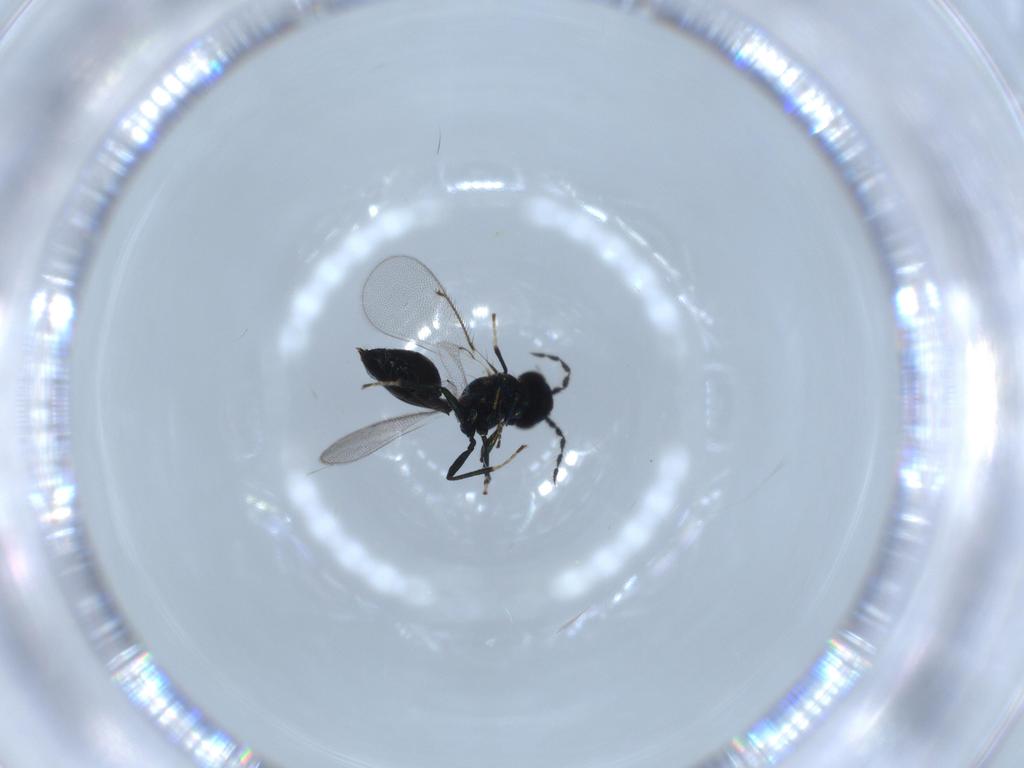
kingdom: Animalia
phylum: Arthropoda
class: Insecta
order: Hymenoptera
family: Braconidae
